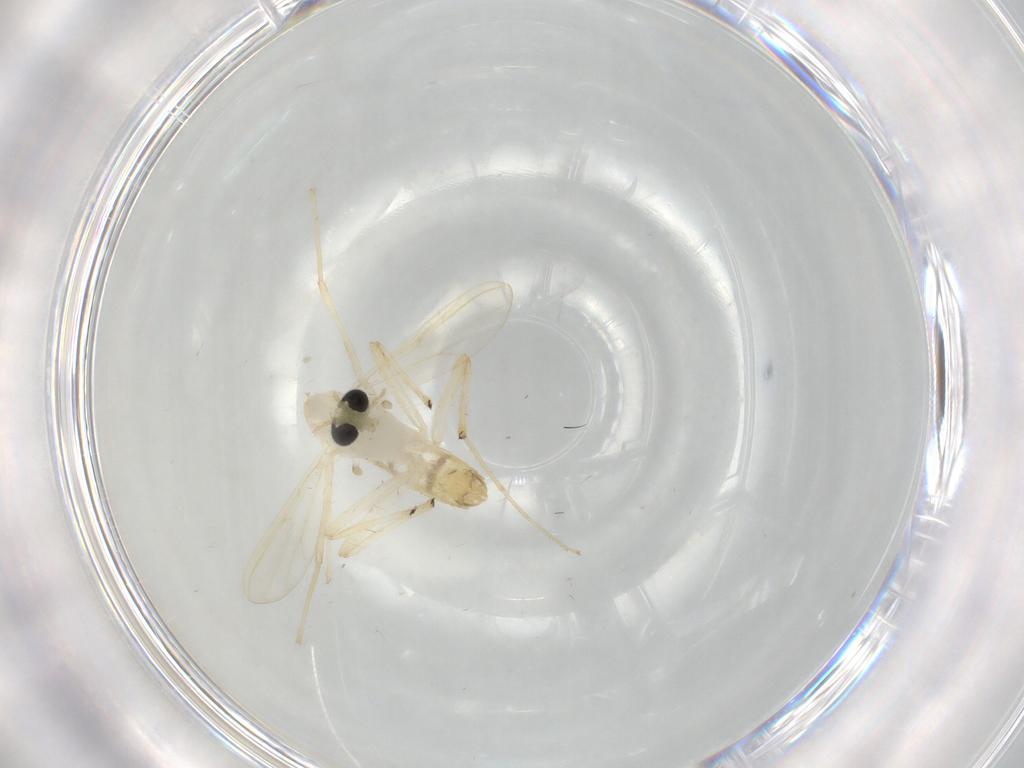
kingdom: Animalia
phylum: Arthropoda
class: Insecta
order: Diptera
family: Chironomidae
